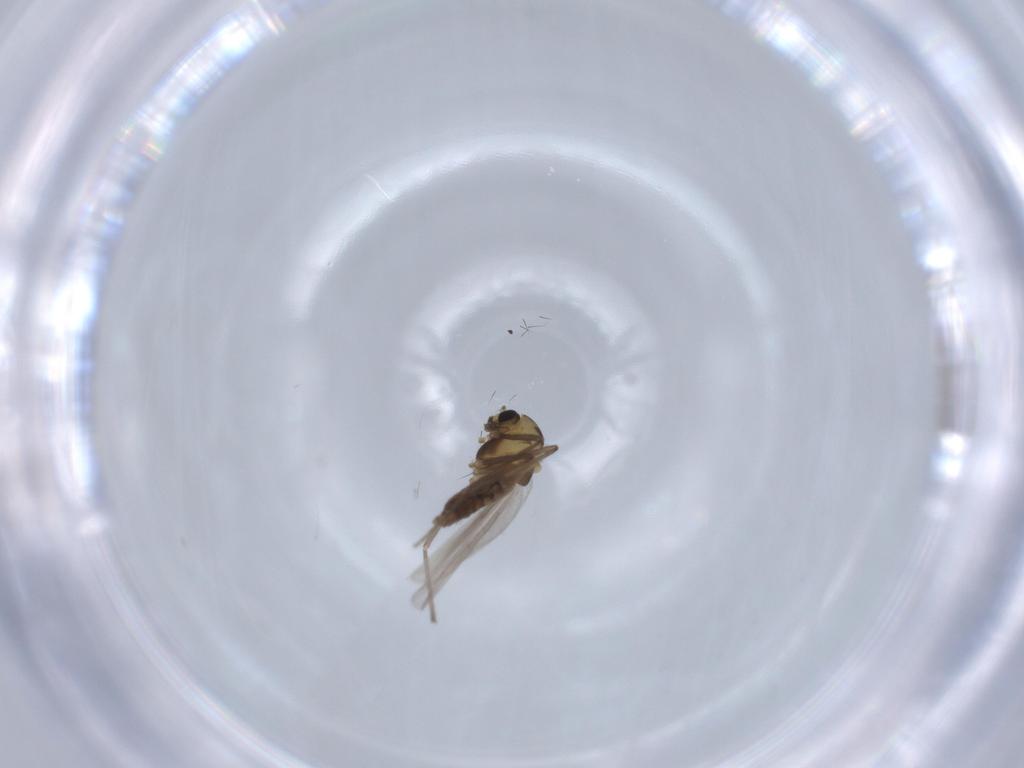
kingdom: Animalia
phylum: Arthropoda
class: Insecta
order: Diptera
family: Chironomidae
